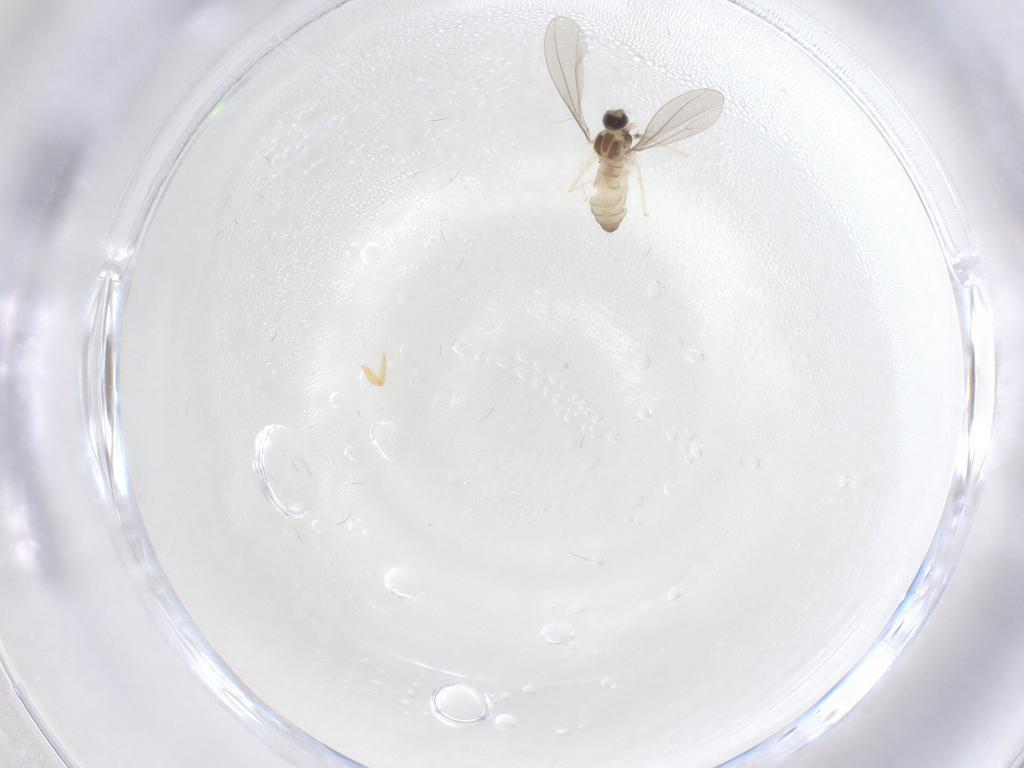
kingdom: Animalia
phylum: Arthropoda
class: Insecta
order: Diptera
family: Cecidomyiidae
